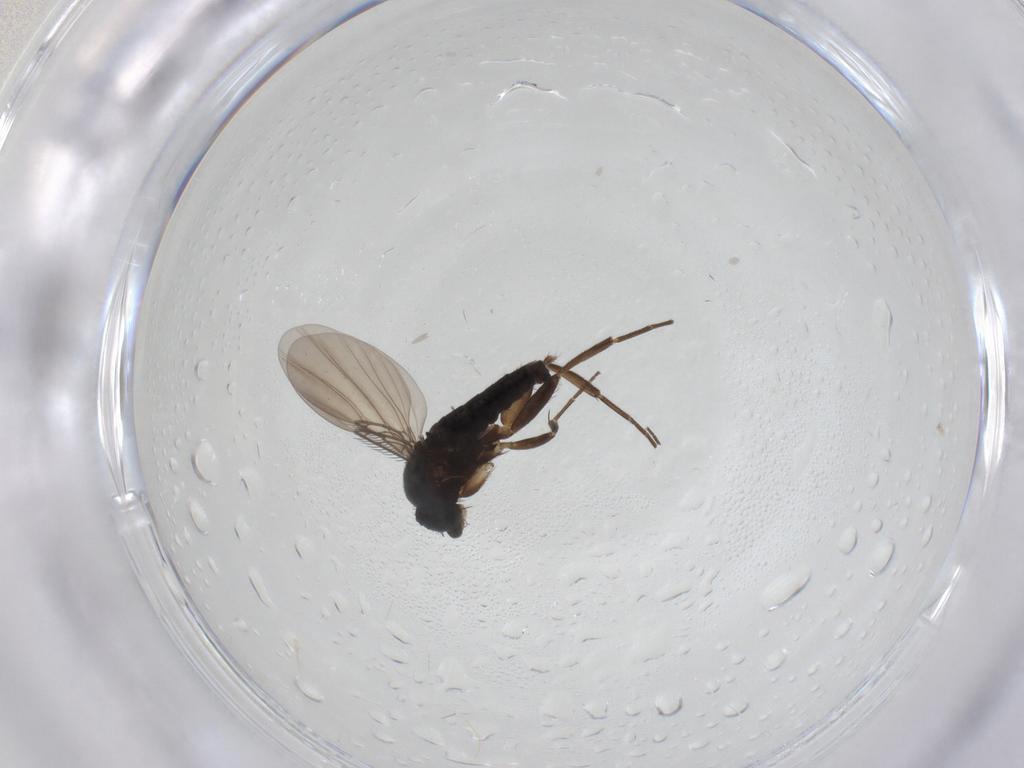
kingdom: Animalia
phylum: Arthropoda
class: Insecta
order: Diptera
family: Phoridae
